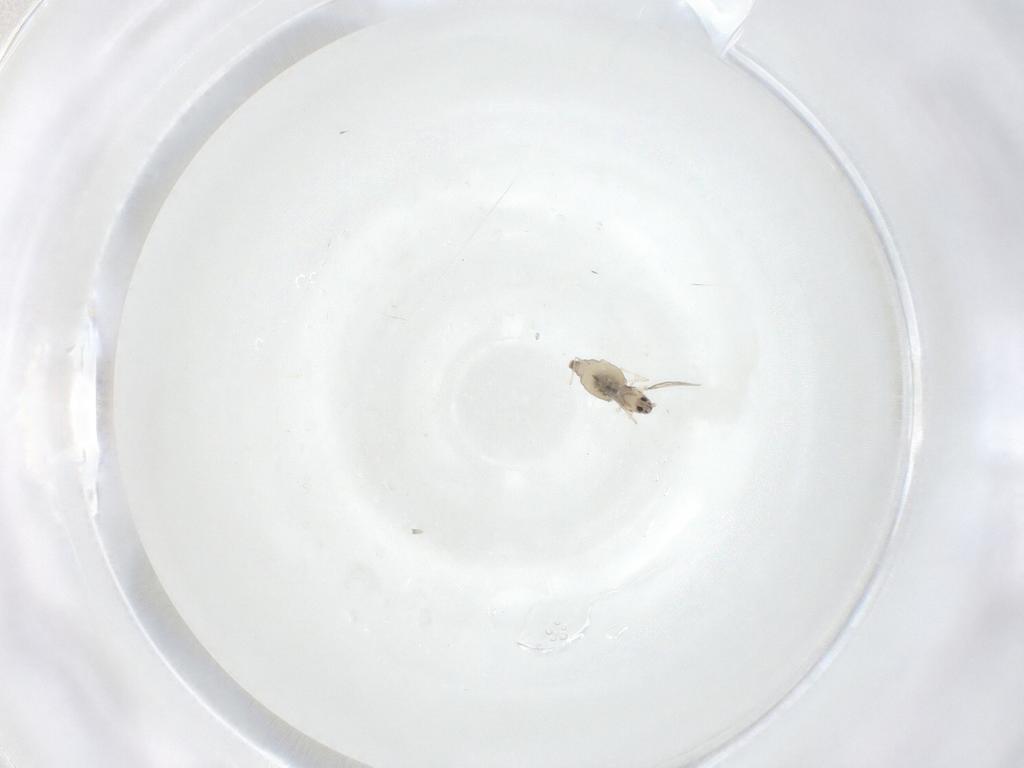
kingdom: Animalia
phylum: Arthropoda
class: Insecta
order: Diptera
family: Cecidomyiidae
